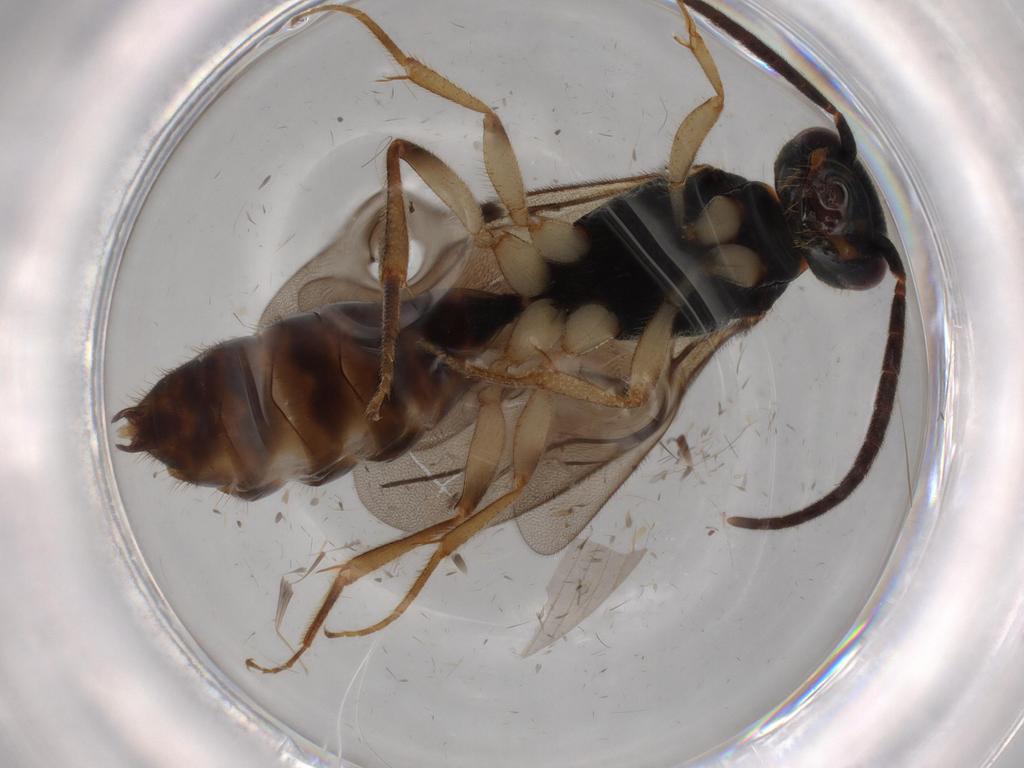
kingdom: Animalia
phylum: Arthropoda
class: Insecta
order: Hymenoptera
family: Bethylidae
